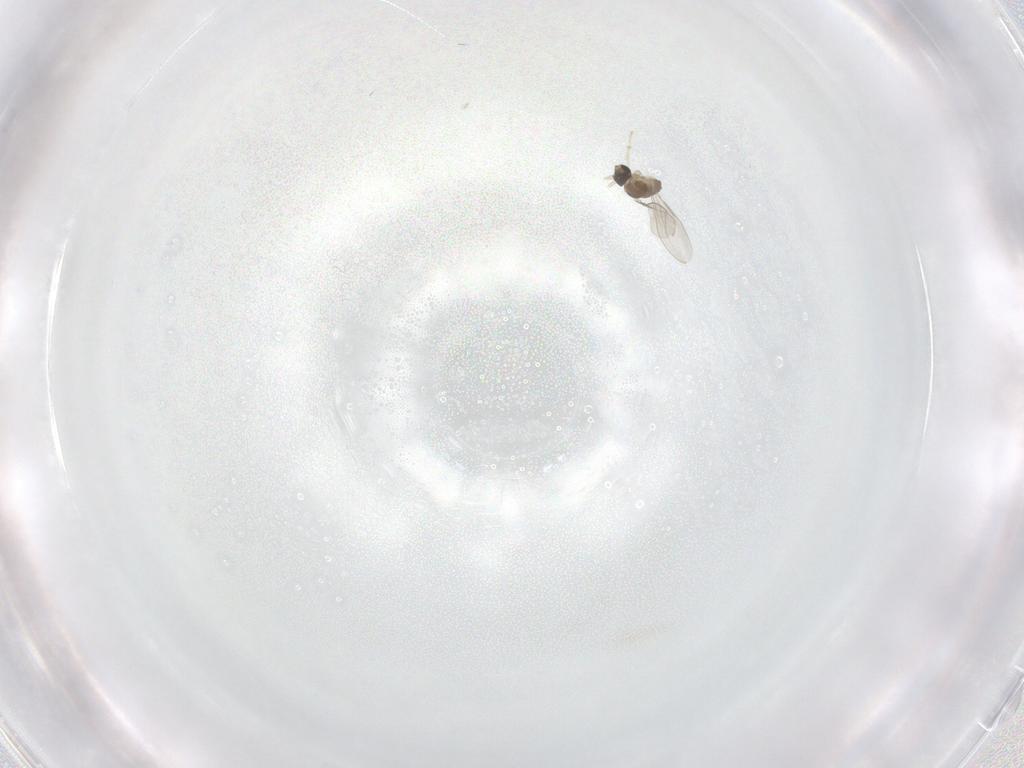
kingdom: Animalia
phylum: Arthropoda
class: Insecta
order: Diptera
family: Cecidomyiidae
